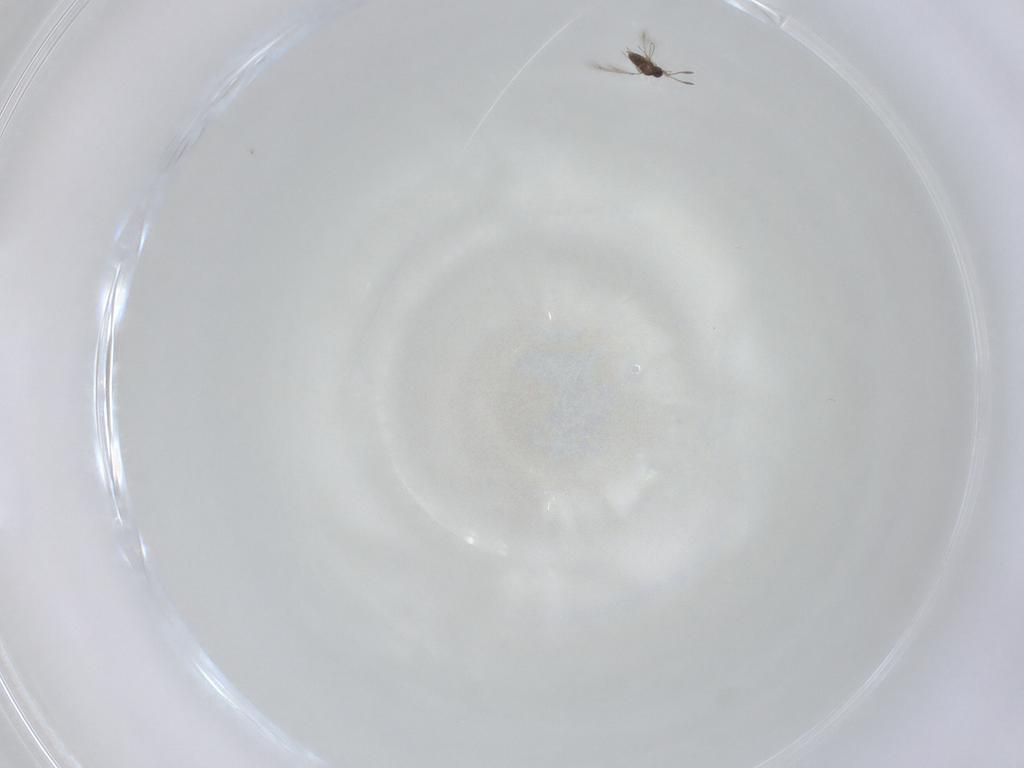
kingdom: Animalia
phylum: Arthropoda
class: Insecta
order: Hymenoptera
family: Mymaridae
